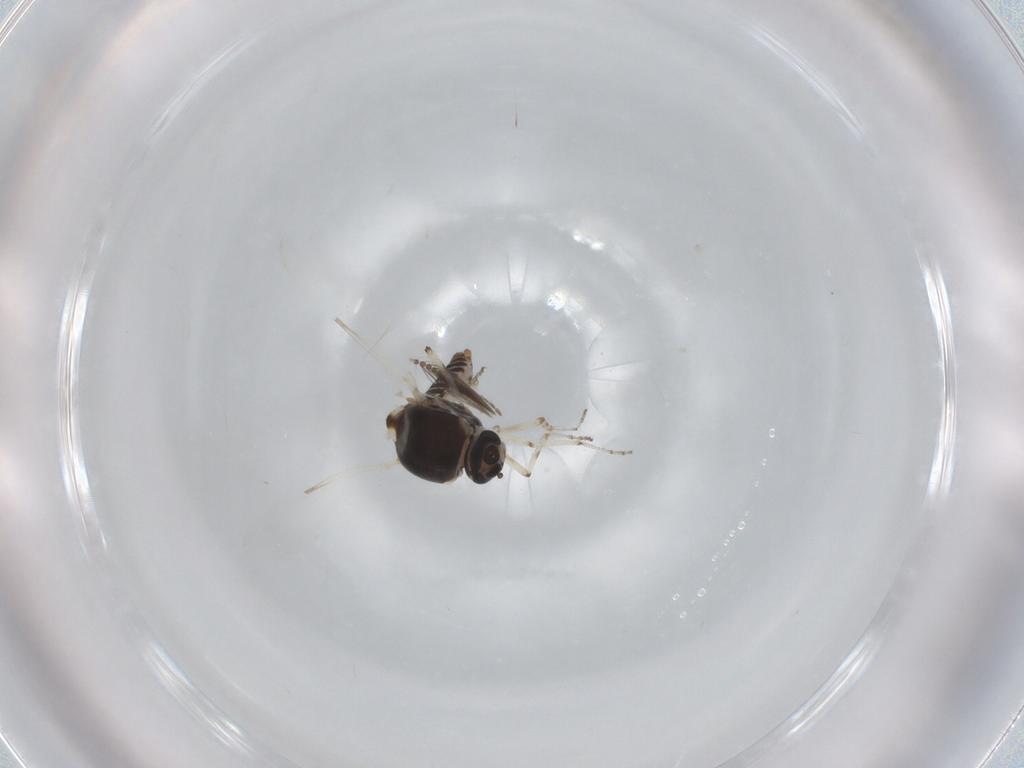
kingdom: Animalia
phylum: Arthropoda
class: Insecta
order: Diptera
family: Ceratopogonidae
